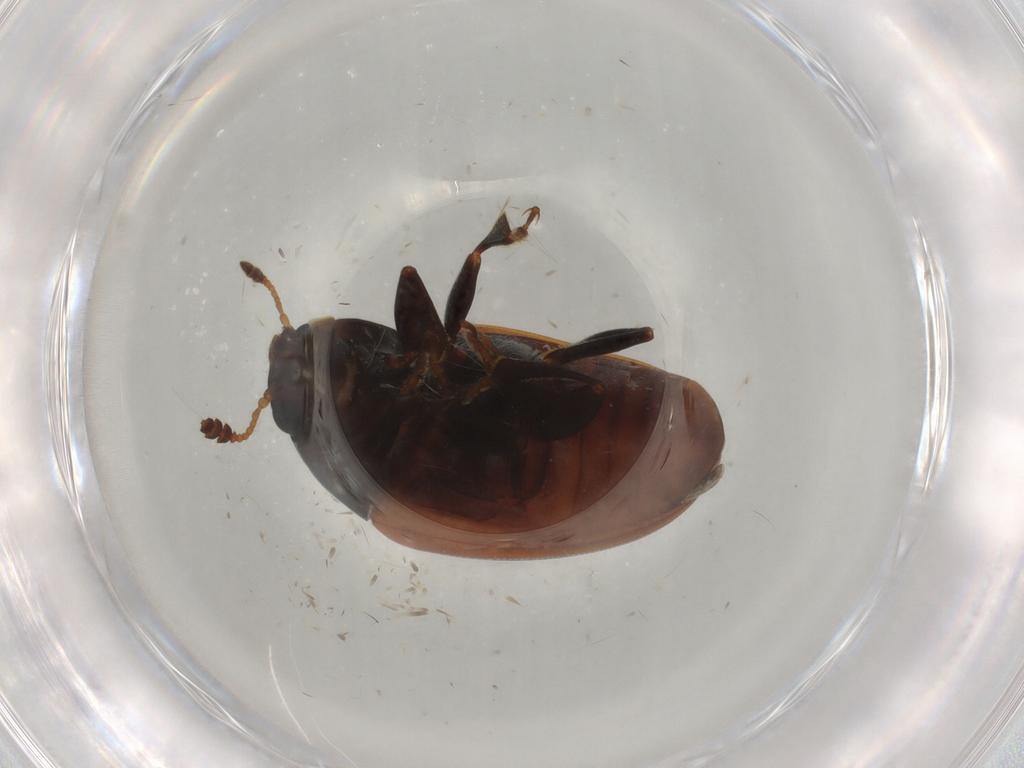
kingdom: Animalia
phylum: Arthropoda
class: Insecta
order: Coleoptera
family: Erotylidae
